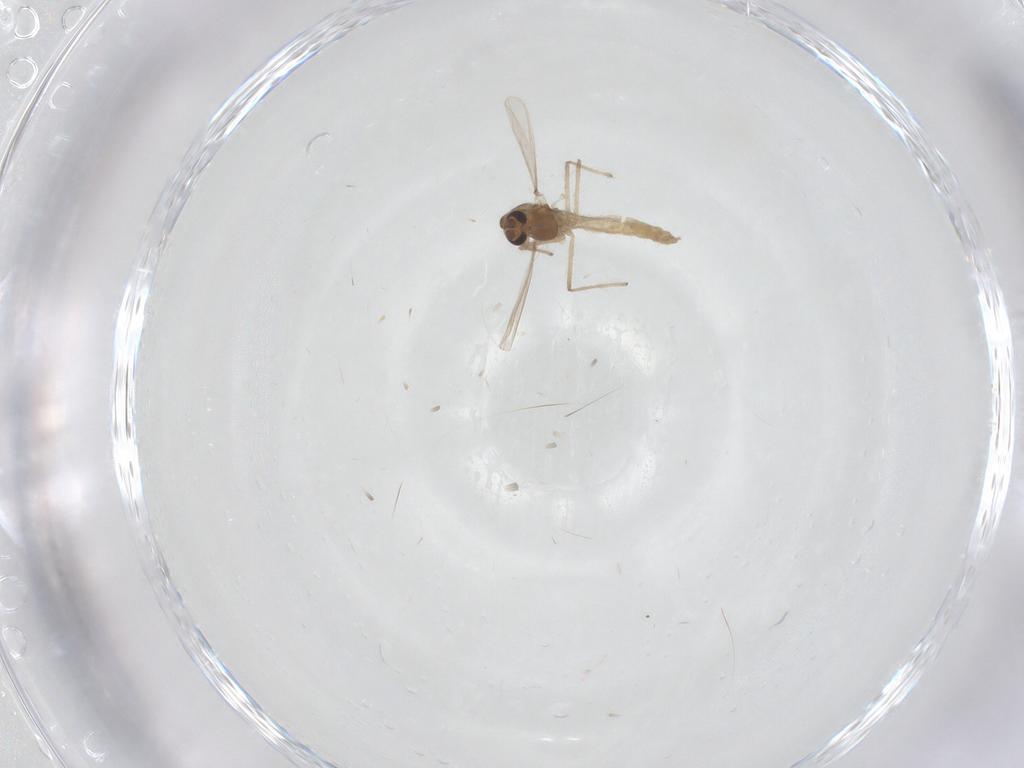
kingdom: Animalia
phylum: Arthropoda
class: Insecta
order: Diptera
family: Chironomidae
